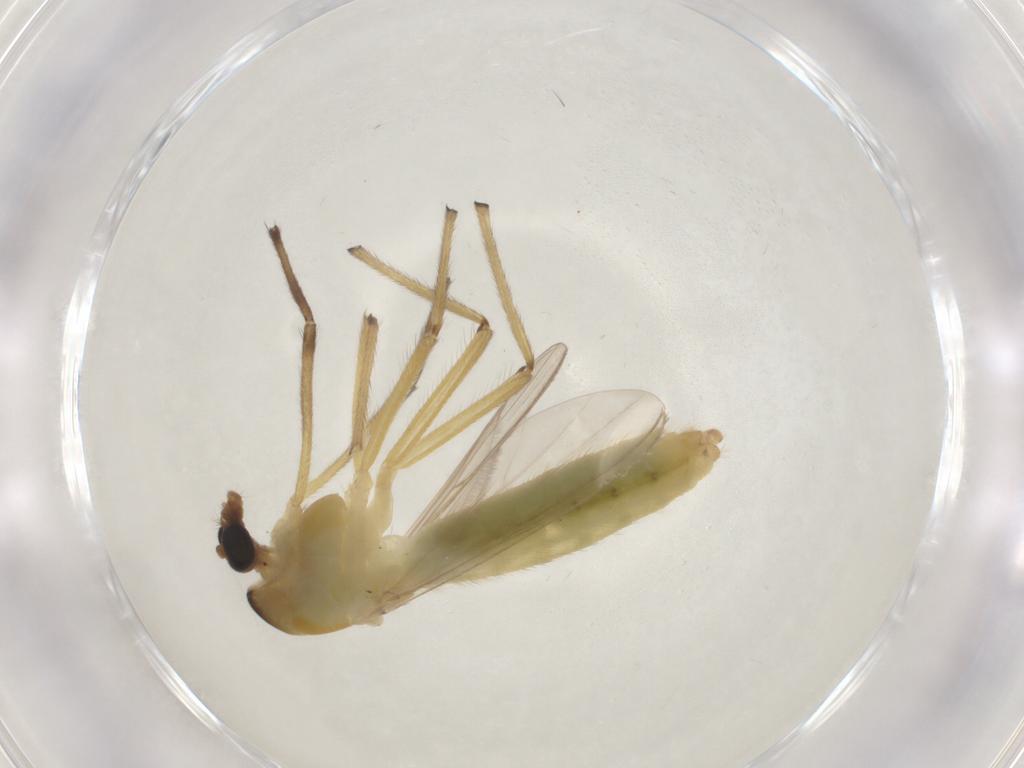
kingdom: Animalia
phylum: Arthropoda
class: Insecta
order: Diptera
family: Chironomidae
